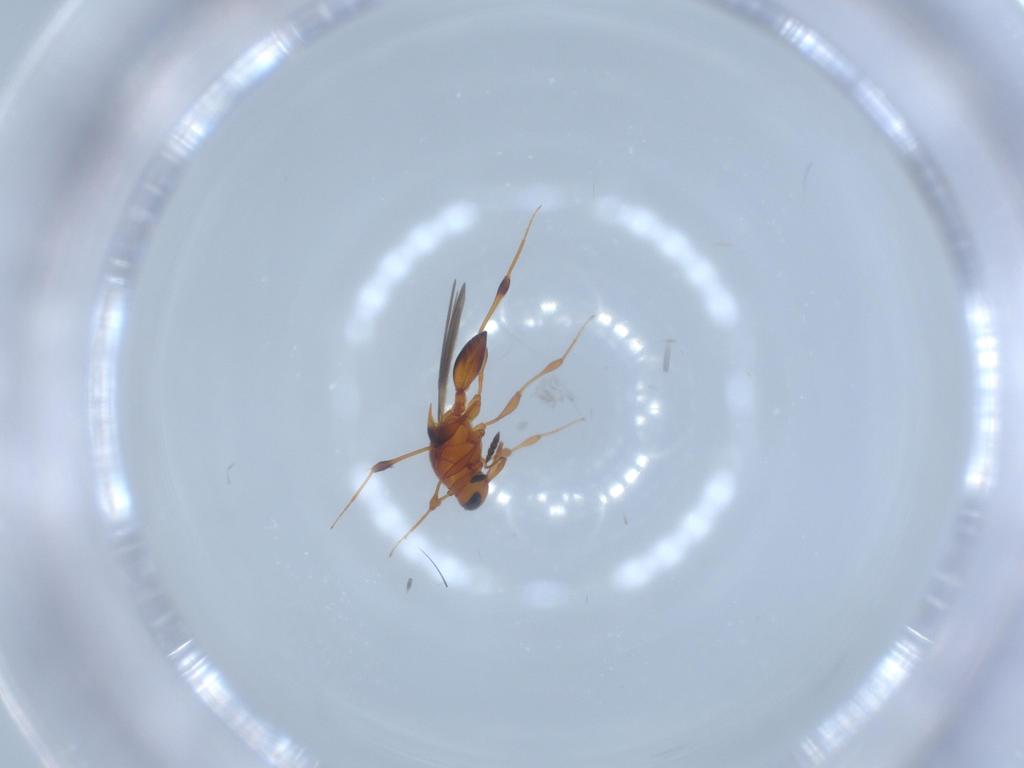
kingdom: Animalia
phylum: Arthropoda
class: Insecta
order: Hymenoptera
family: Platygastridae
